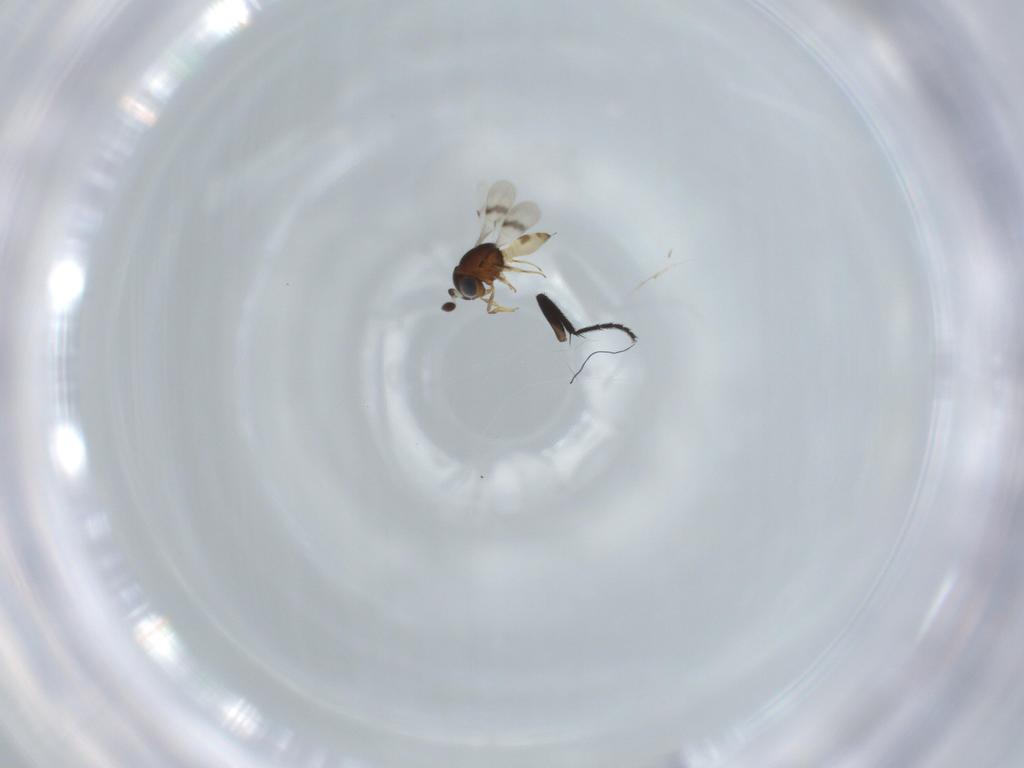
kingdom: Animalia
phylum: Arthropoda
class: Arachnida
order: Araneae
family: Pholcidae
